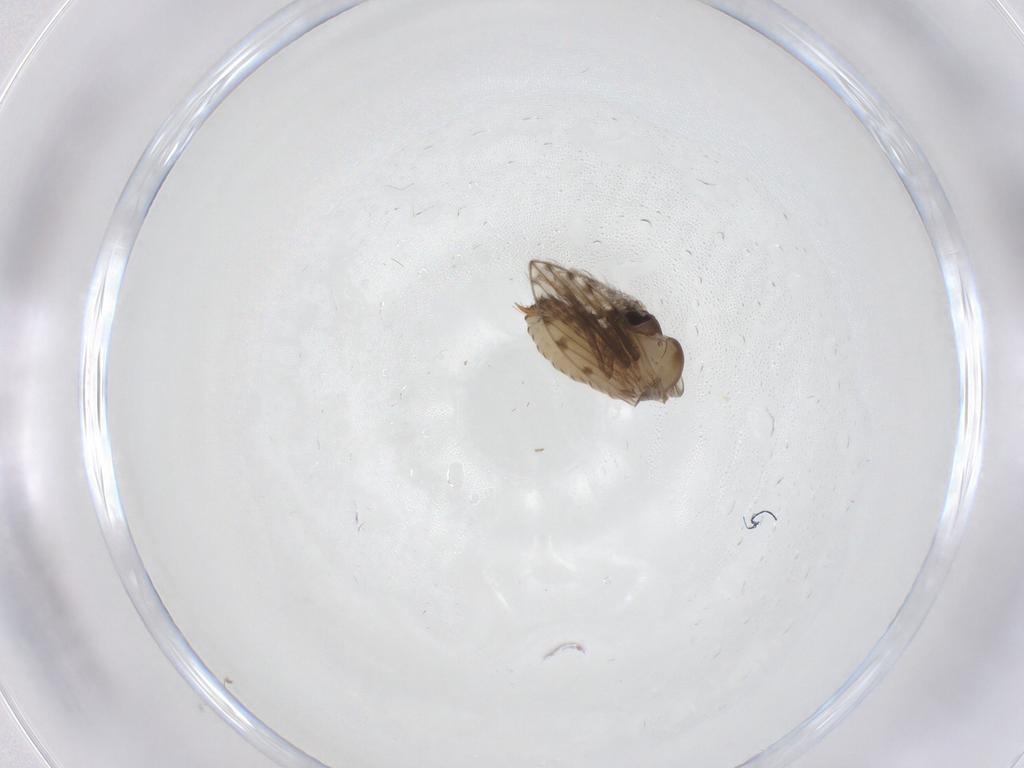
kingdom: Animalia
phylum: Arthropoda
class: Insecta
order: Diptera
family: Psychodidae
